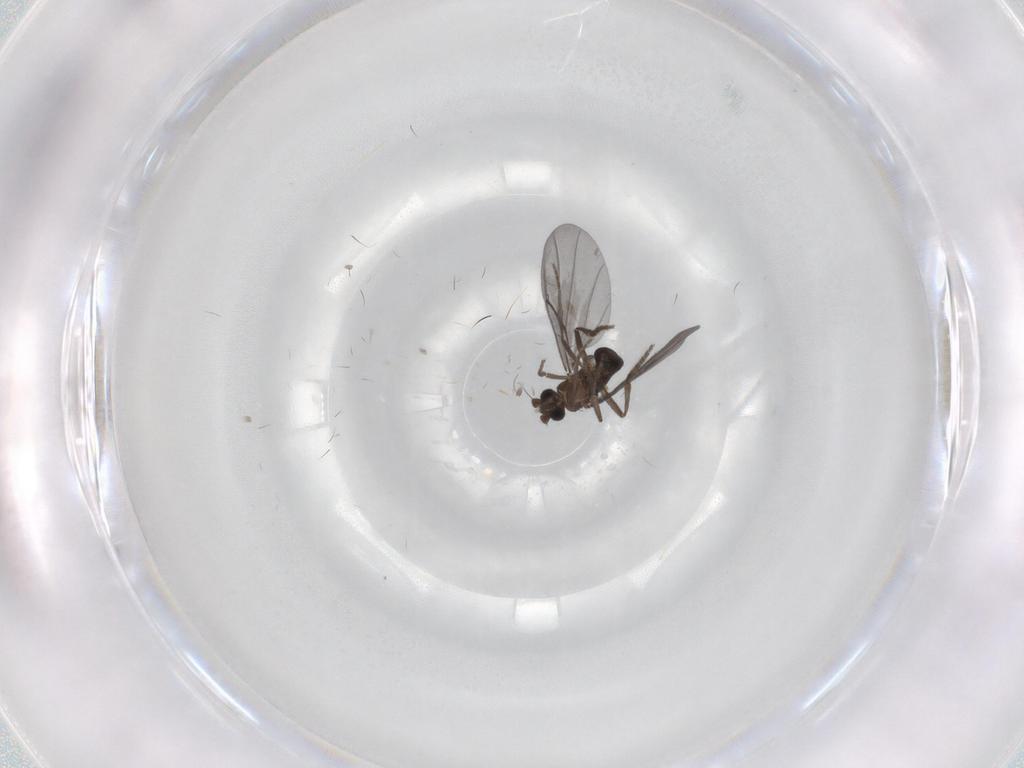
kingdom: Animalia
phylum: Arthropoda
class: Insecta
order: Diptera
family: Phoridae
